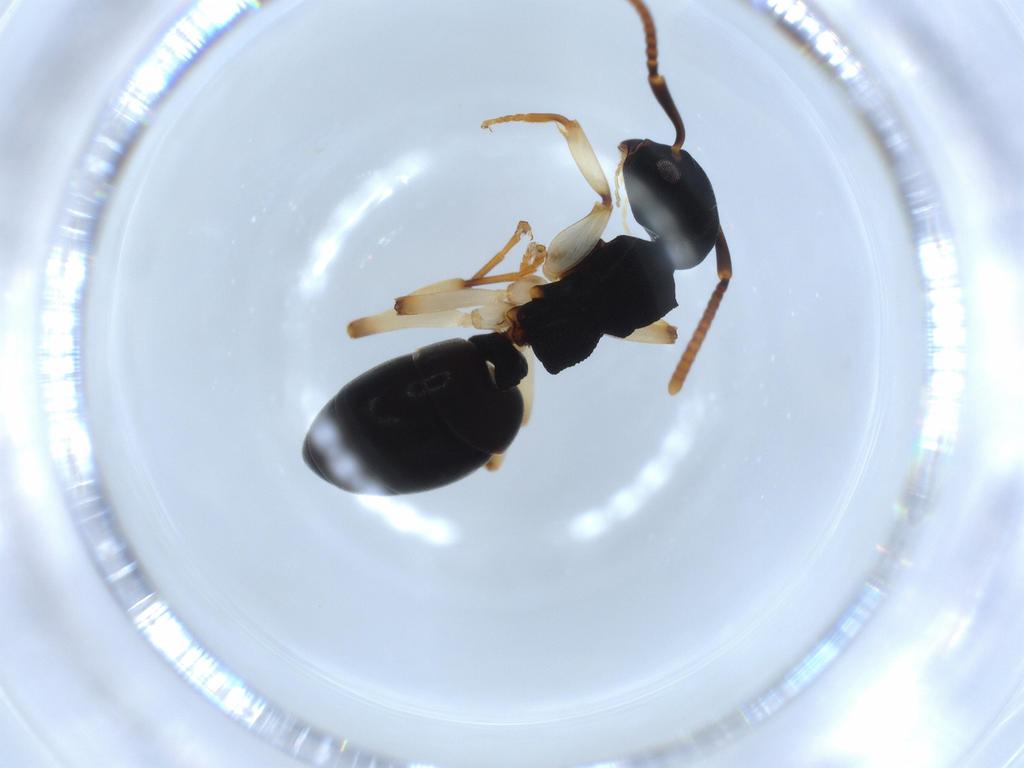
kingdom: Animalia
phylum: Arthropoda
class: Insecta
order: Hymenoptera
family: Formicidae
